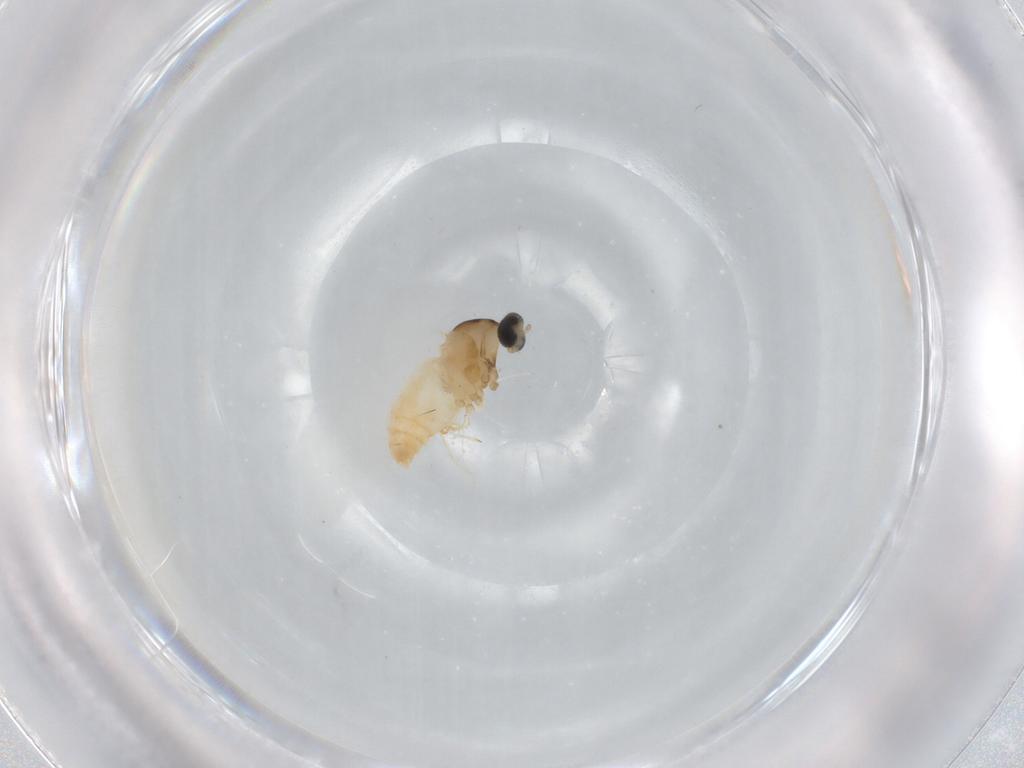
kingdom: Animalia
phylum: Arthropoda
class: Insecta
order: Diptera
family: Cecidomyiidae
